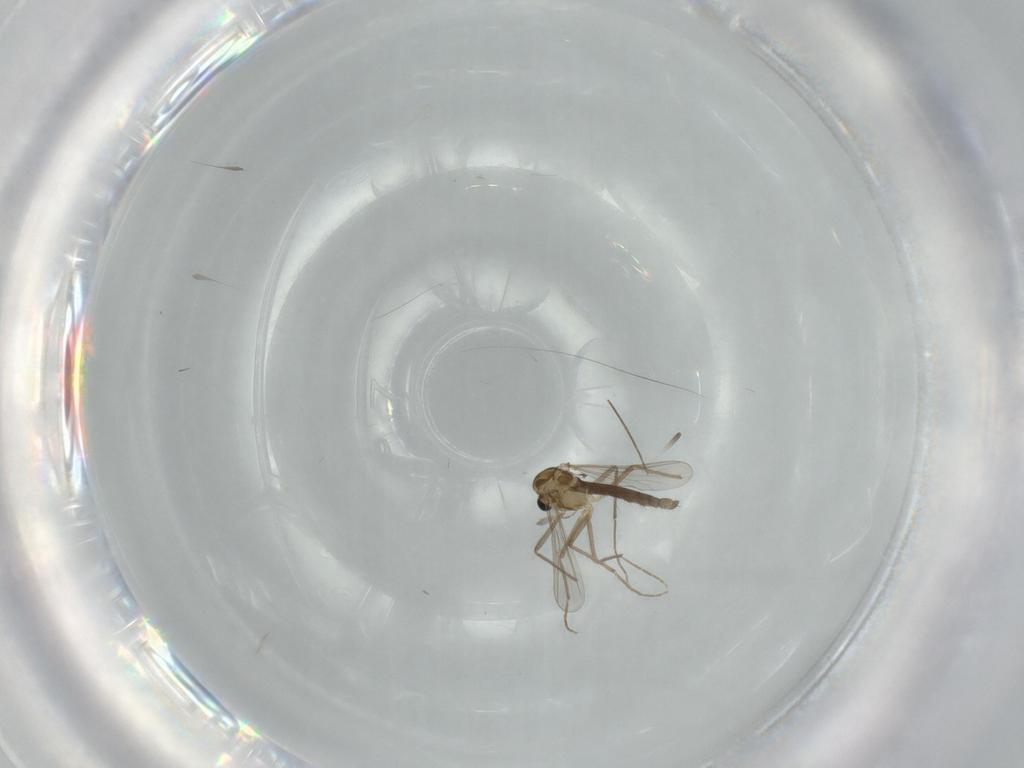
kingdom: Animalia
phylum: Arthropoda
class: Insecta
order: Diptera
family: Chironomidae
